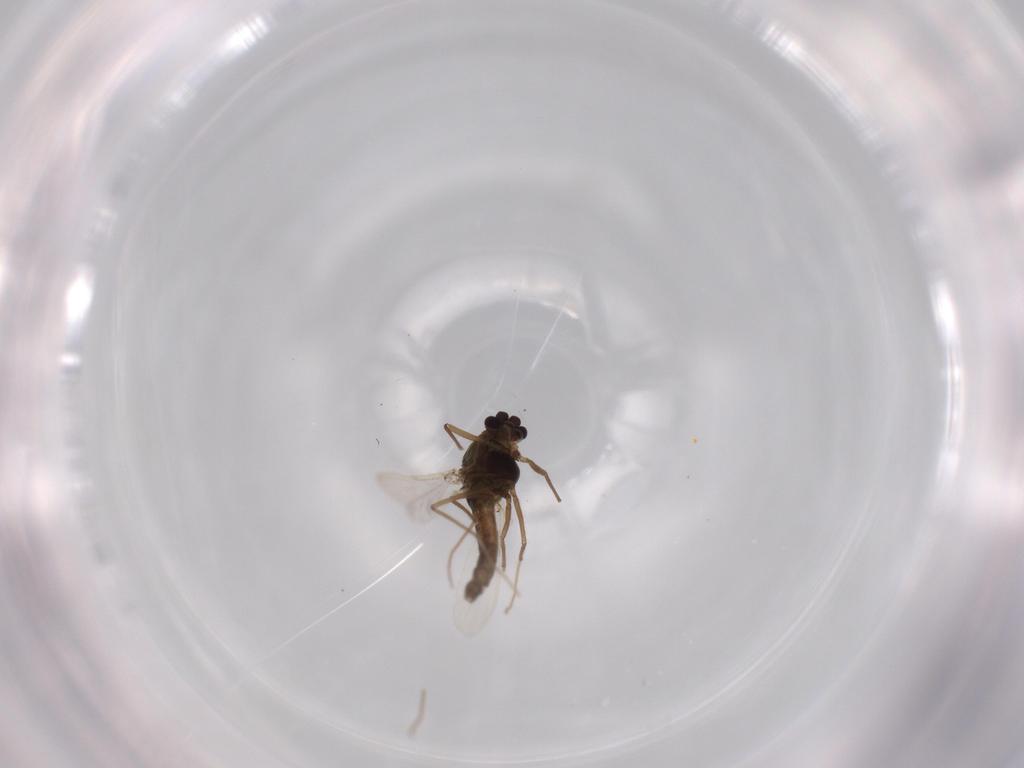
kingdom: Animalia
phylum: Arthropoda
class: Insecta
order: Diptera
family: Chironomidae
